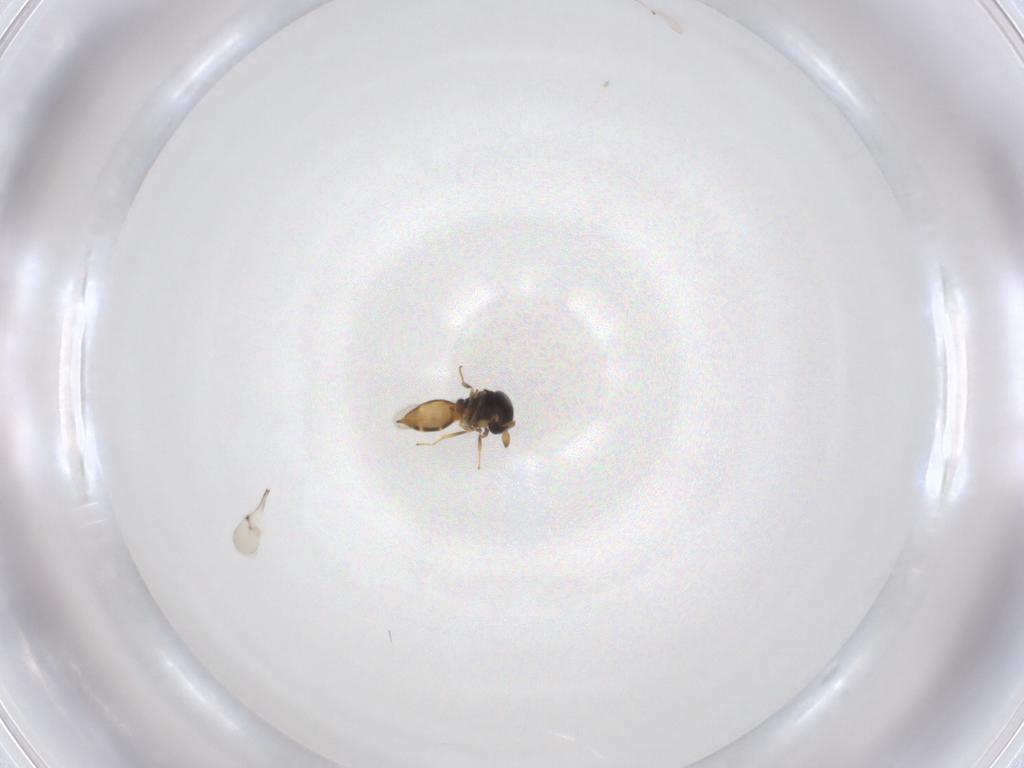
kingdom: Animalia
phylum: Arthropoda
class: Insecta
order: Hymenoptera
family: Scelionidae
